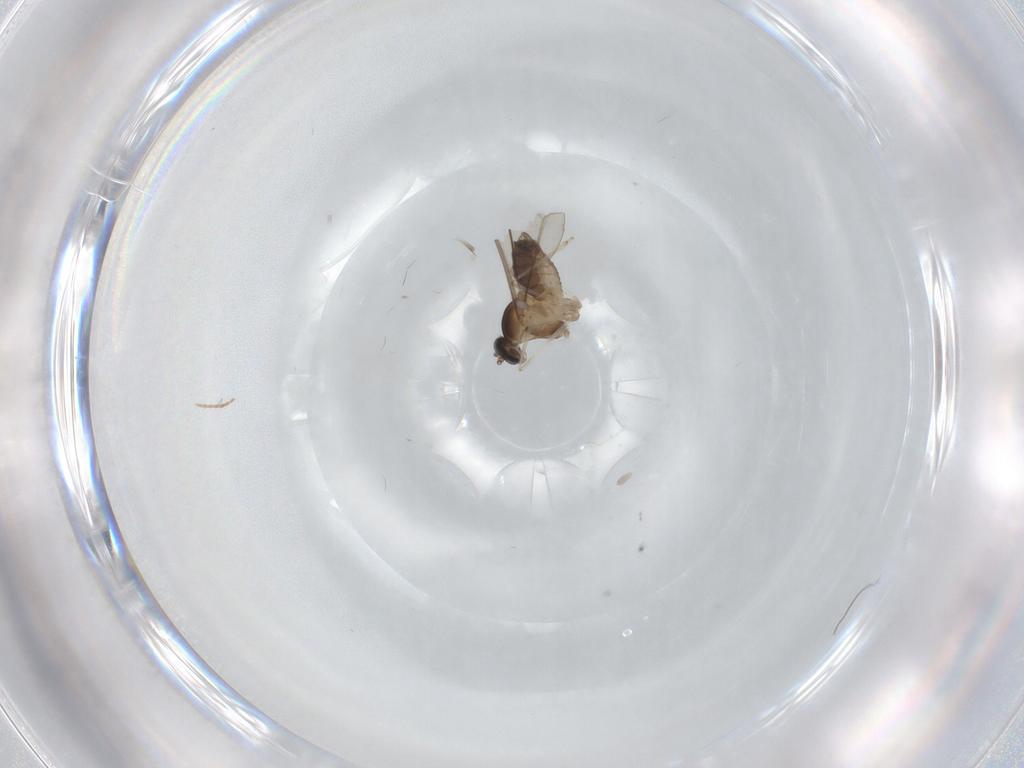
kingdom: Animalia
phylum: Arthropoda
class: Insecta
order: Diptera
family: Cecidomyiidae
